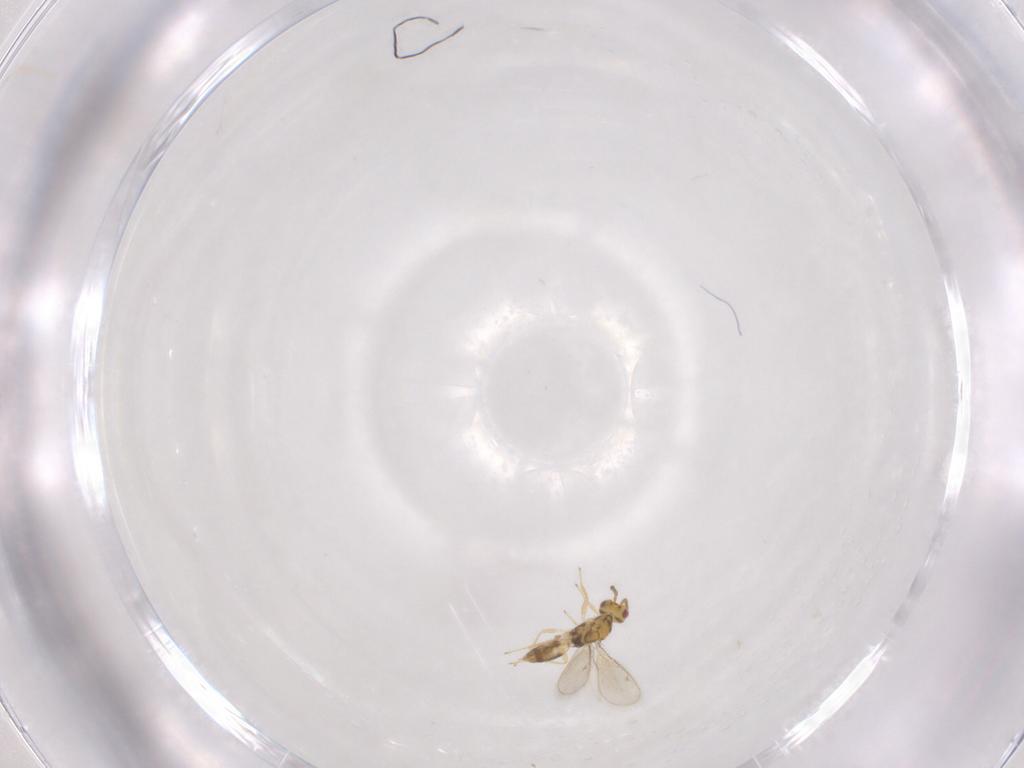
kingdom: Animalia
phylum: Arthropoda
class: Insecta
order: Hymenoptera
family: Eulophidae
